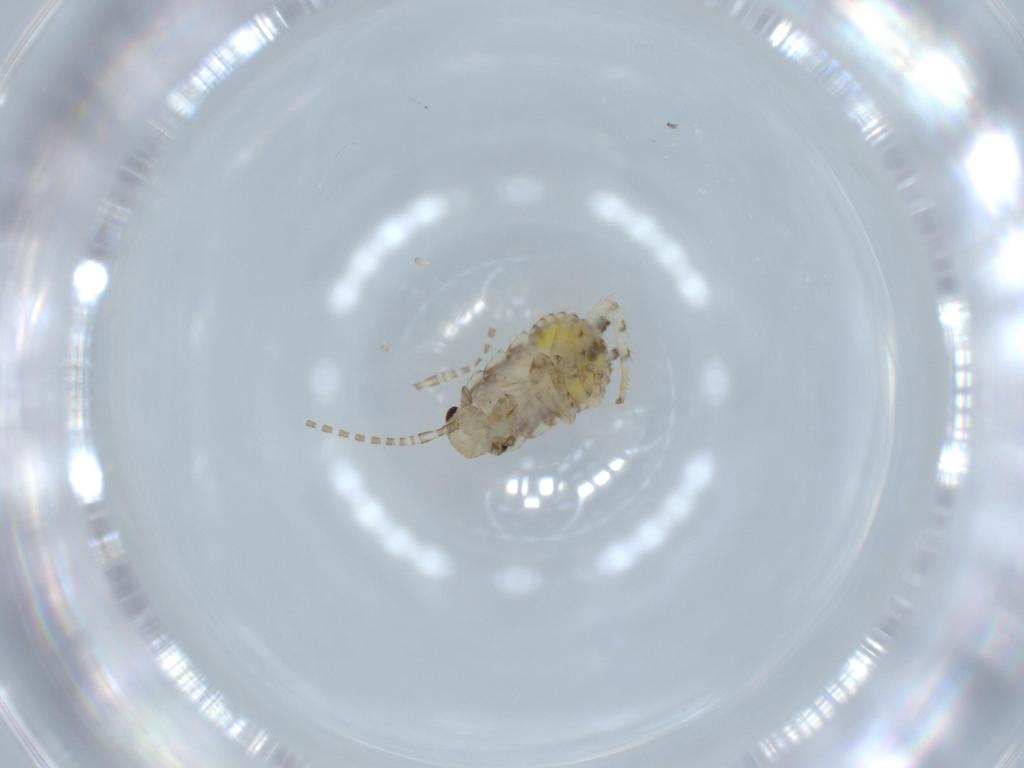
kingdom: Animalia
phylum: Arthropoda
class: Insecta
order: Blattodea
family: Ectobiidae
